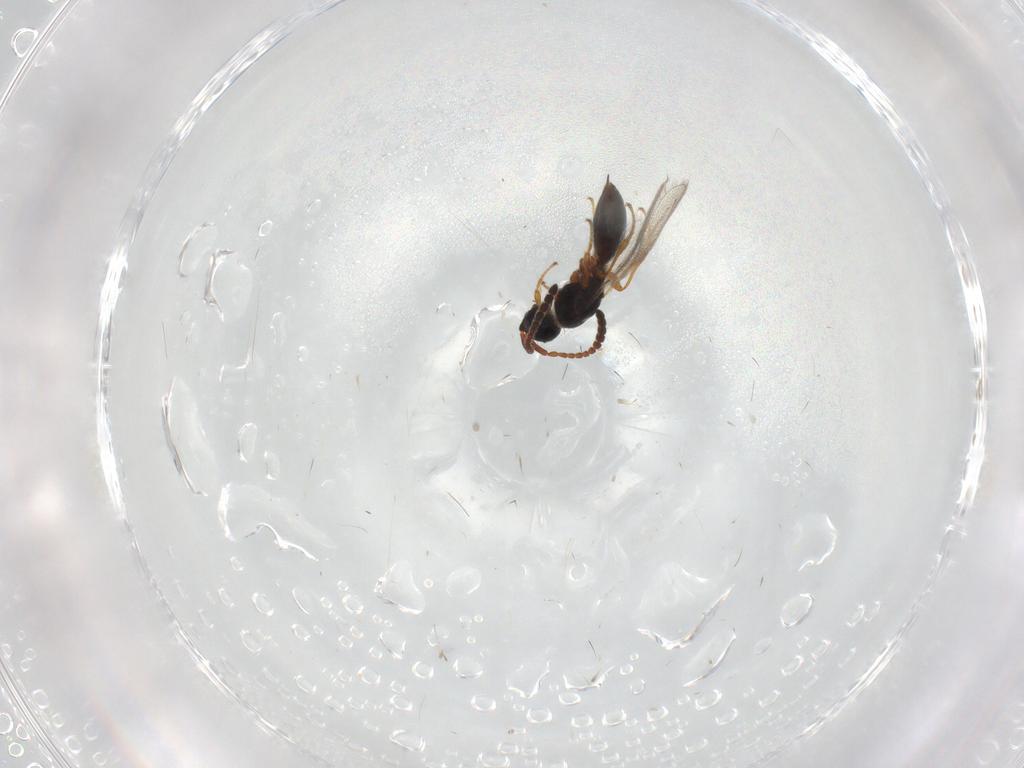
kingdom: Animalia
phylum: Arthropoda
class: Insecta
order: Hymenoptera
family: Diapriidae
